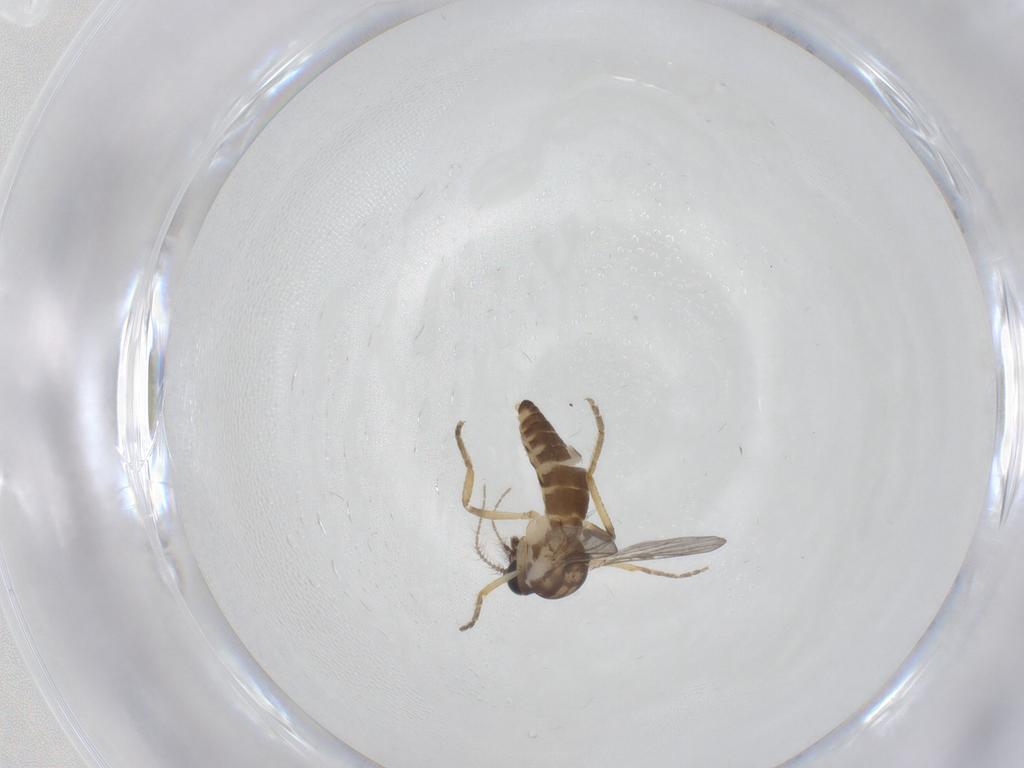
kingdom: Animalia
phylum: Arthropoda
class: Insecta
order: Diptera
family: Ceratopogonidae
